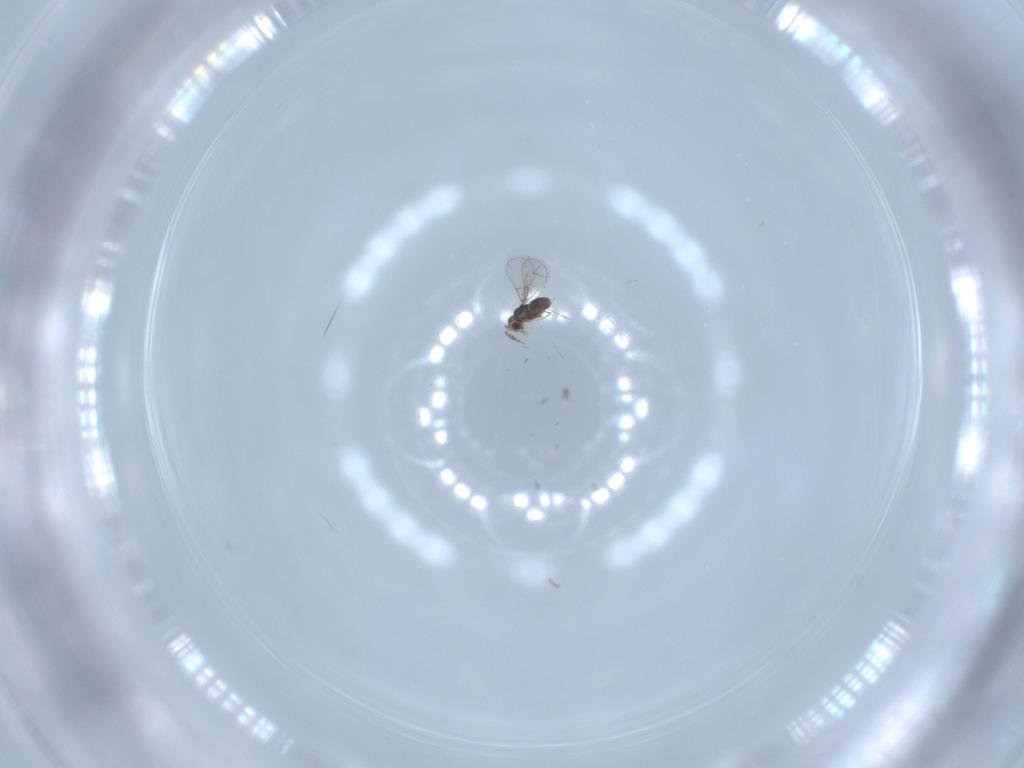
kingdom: Animalia
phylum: Arthropoda
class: Insecta
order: Hymenoptera
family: Trichogrammatidae
